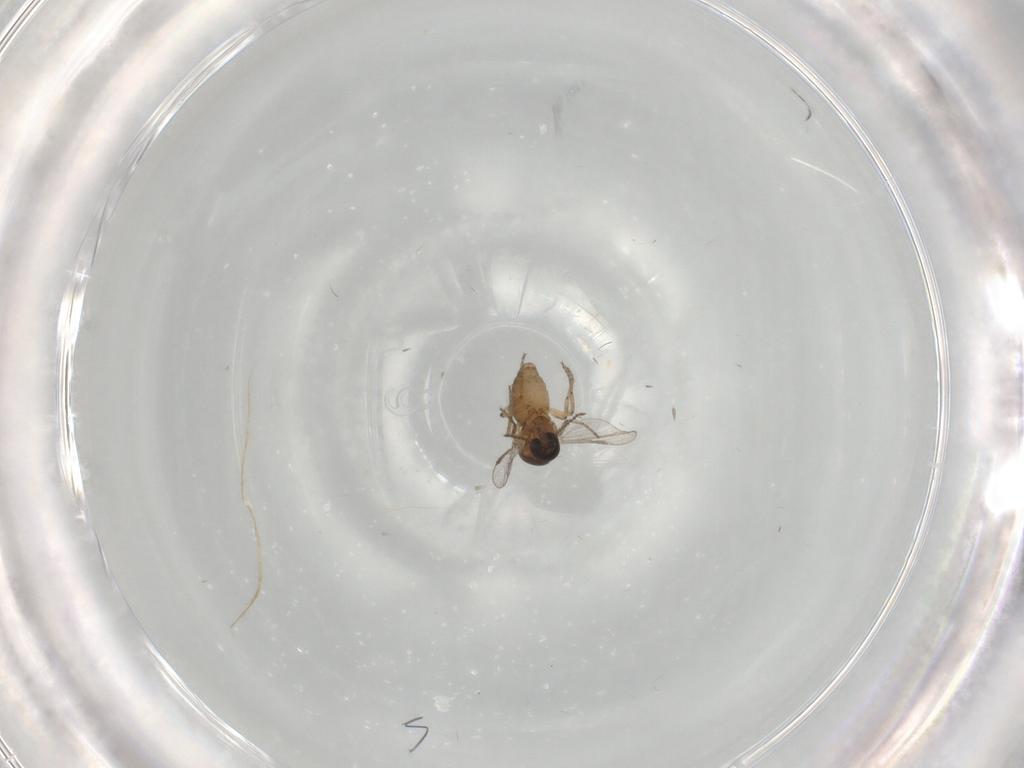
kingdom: Animalia
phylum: Arthropoda
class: Insecta
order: Diptera
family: Ceratopogonidae
